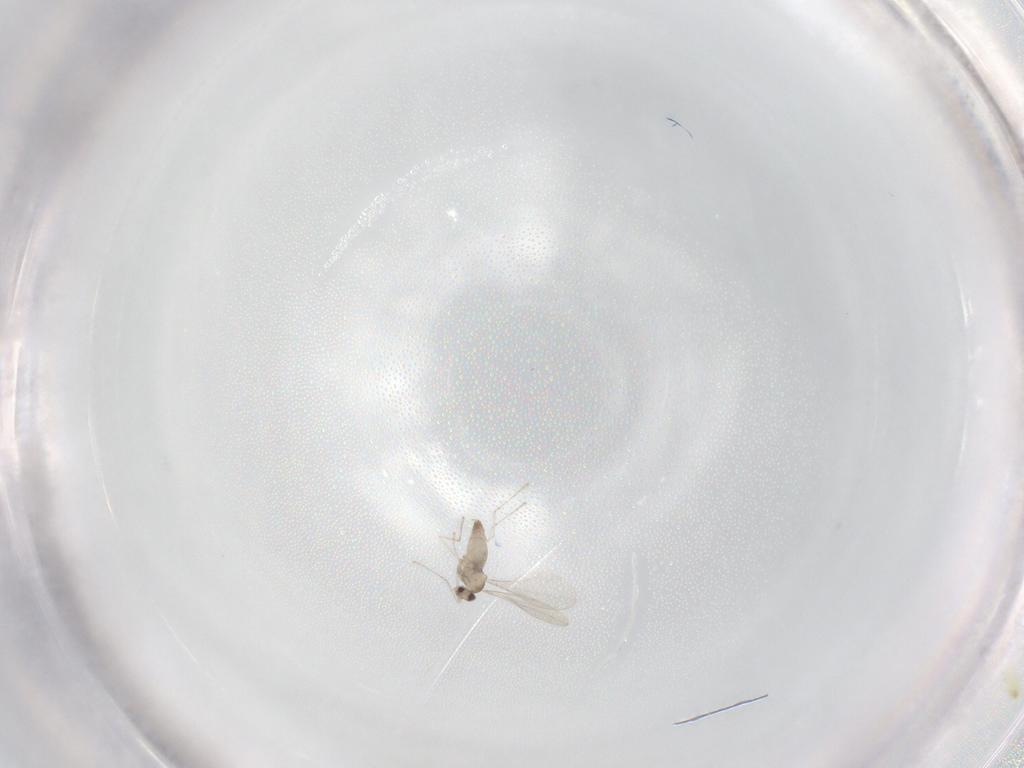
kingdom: Animalia
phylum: Arthropoda
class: Insecta
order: Diptera
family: Cecidomyiidae
